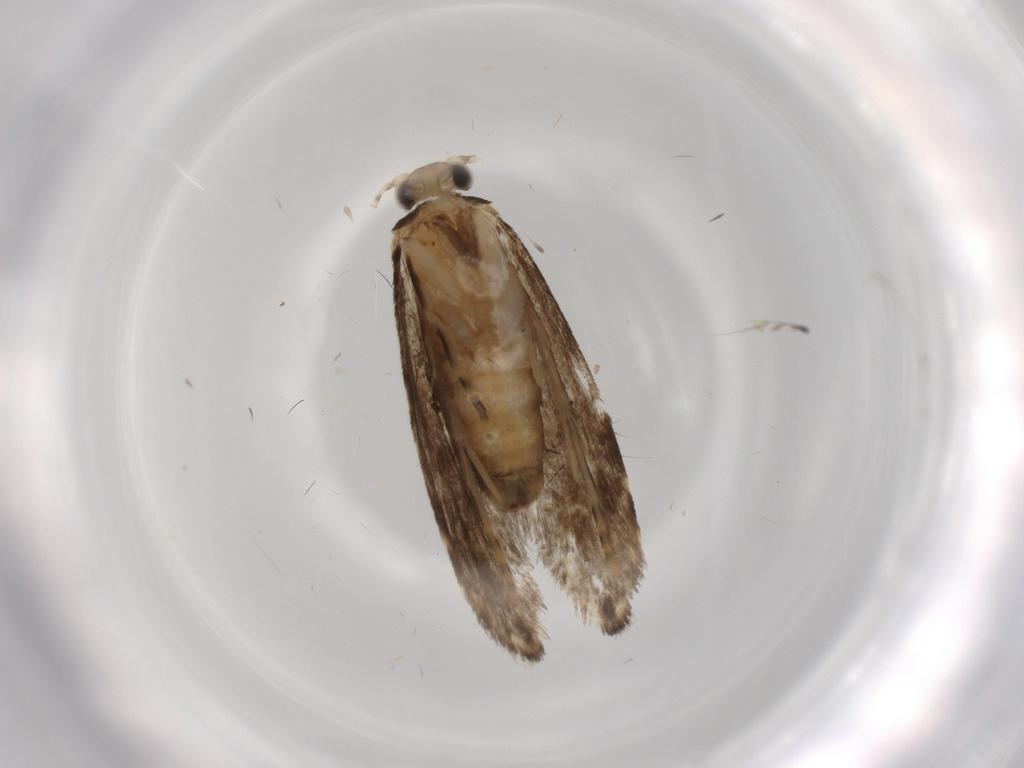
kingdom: Animalia
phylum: Arthropoda
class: Insecta
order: Lepidoptera
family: Tineidae
